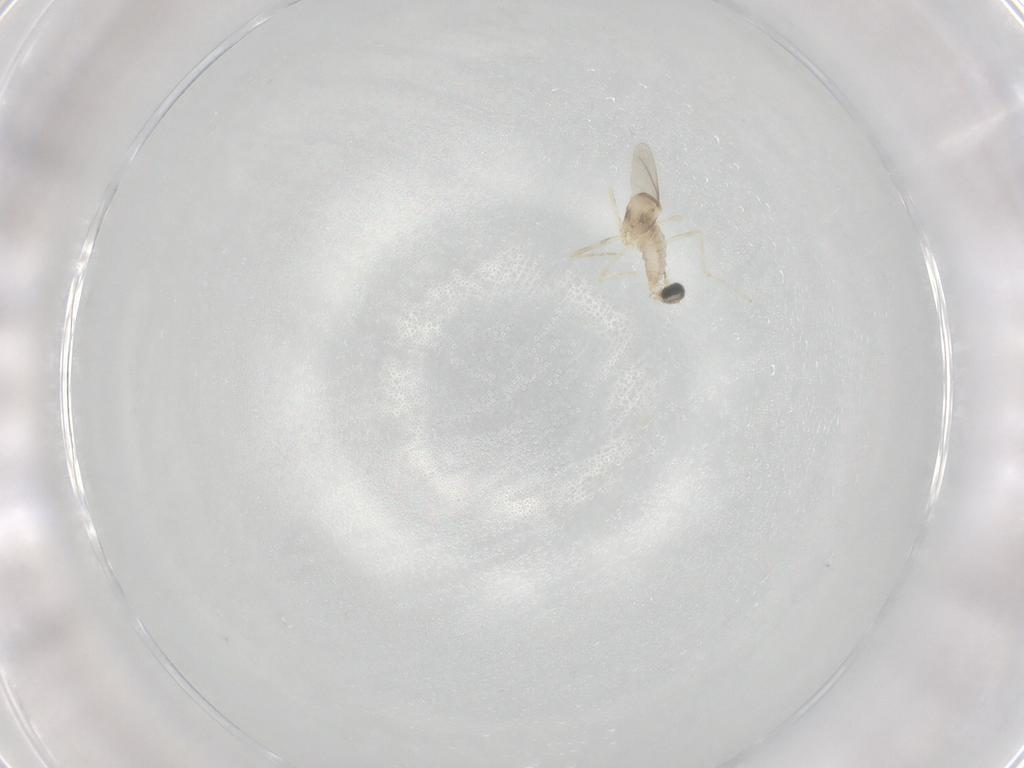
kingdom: Animalia
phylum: Arthropoda
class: Insecta
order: Diptera
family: Cecidomyiidae
